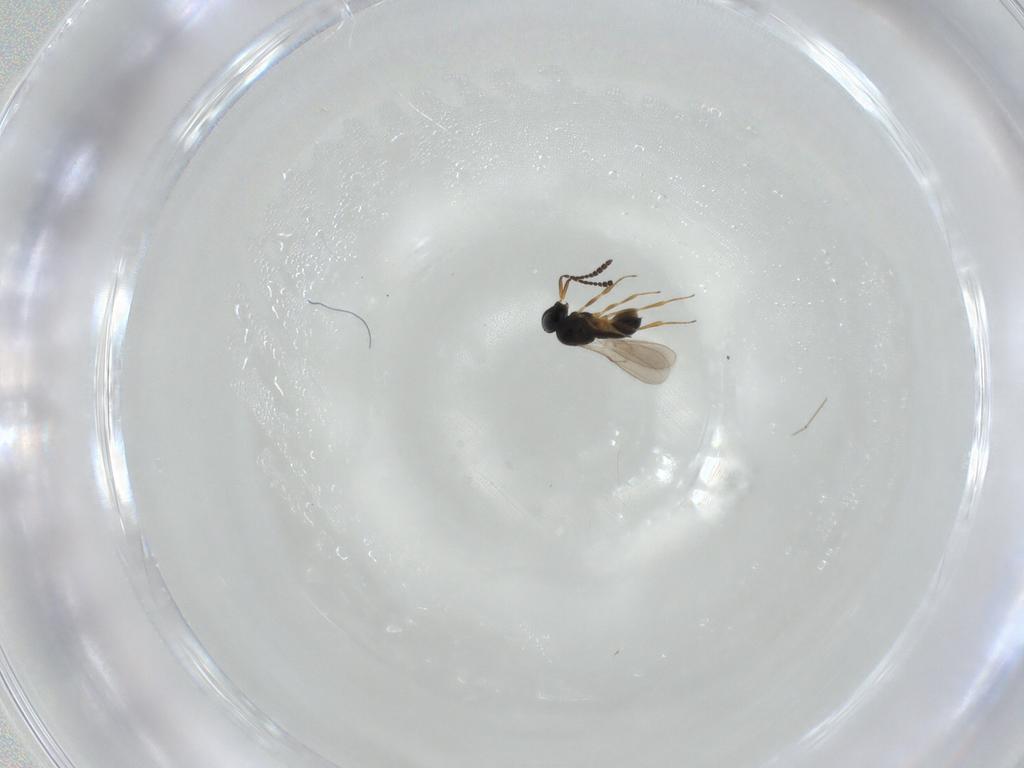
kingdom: Animalia
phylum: Arthropoda
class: Insecta
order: Hymenoptera
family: Scelionidae
